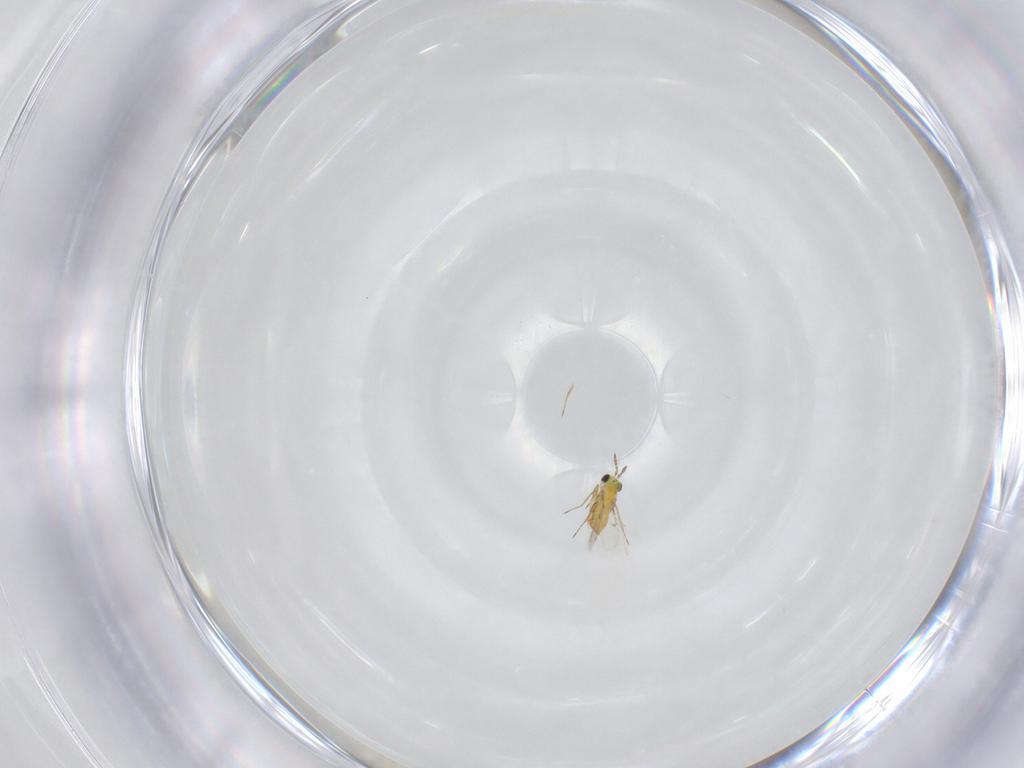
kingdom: Animalia
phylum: Arthropoda
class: Insecta
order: Hymenoptera
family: Trichogrammatidae
